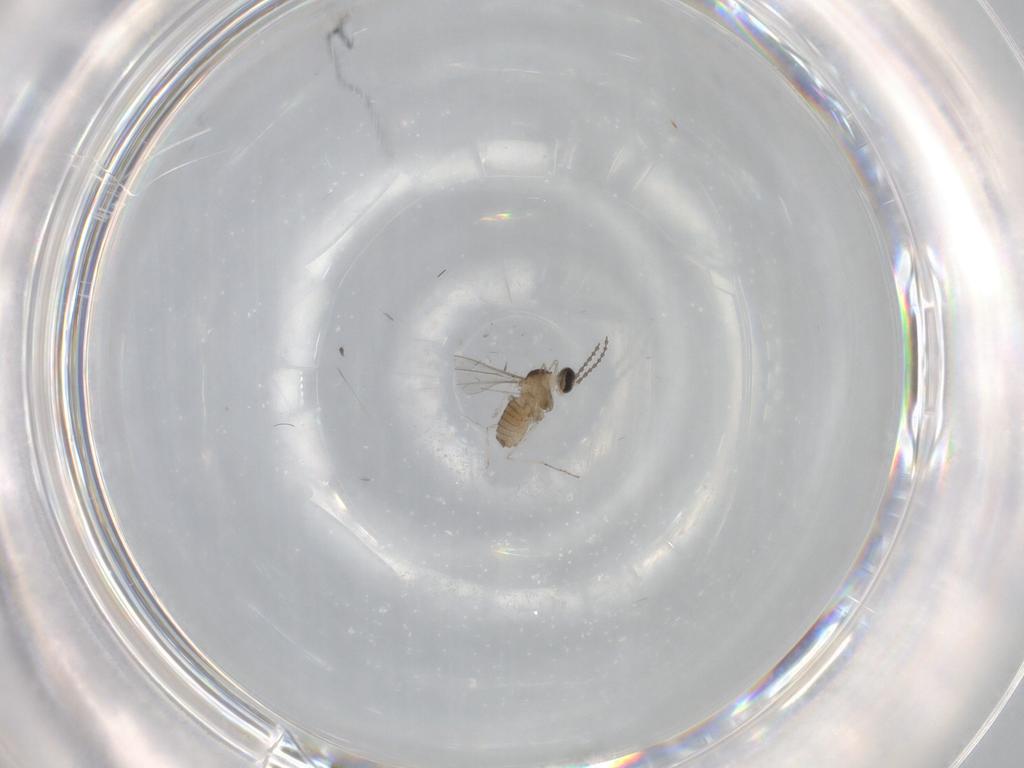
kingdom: Animalia
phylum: Arthropoda
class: Insecta
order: Diptera
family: Cecidomyiidae
